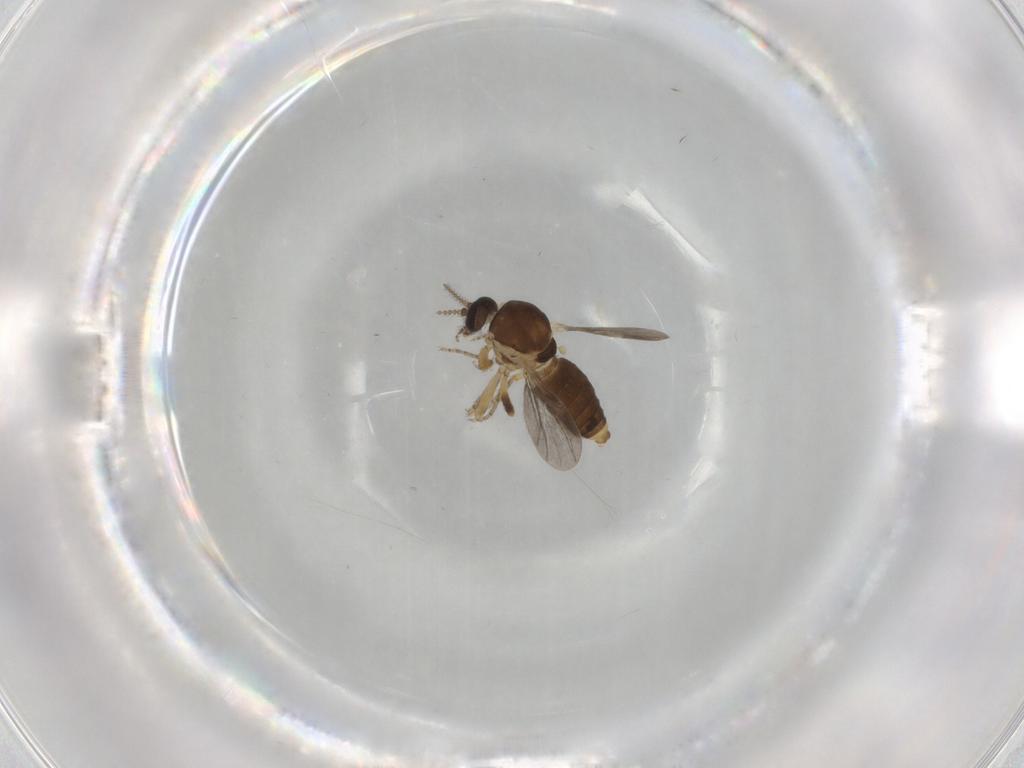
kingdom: Animalia
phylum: Arthropoda
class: Insecta
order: Diptera
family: Ceratopogonidae
